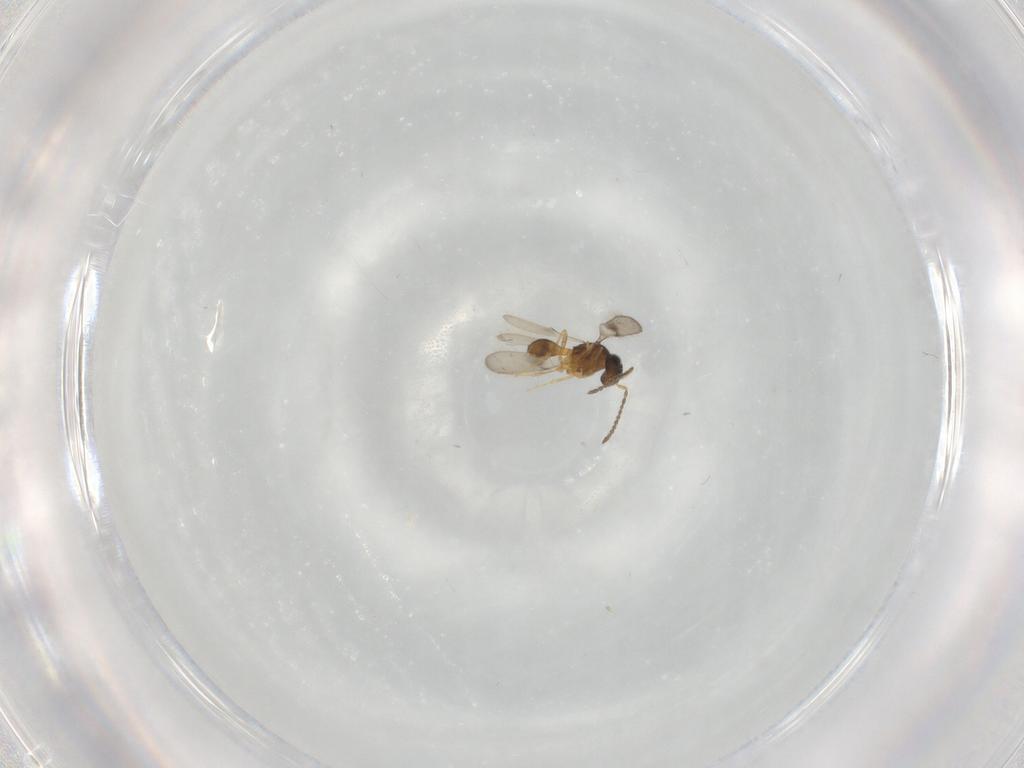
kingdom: Animalia
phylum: Arthropoda
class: Insecta
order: Hymenoptera
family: Scelionidae
